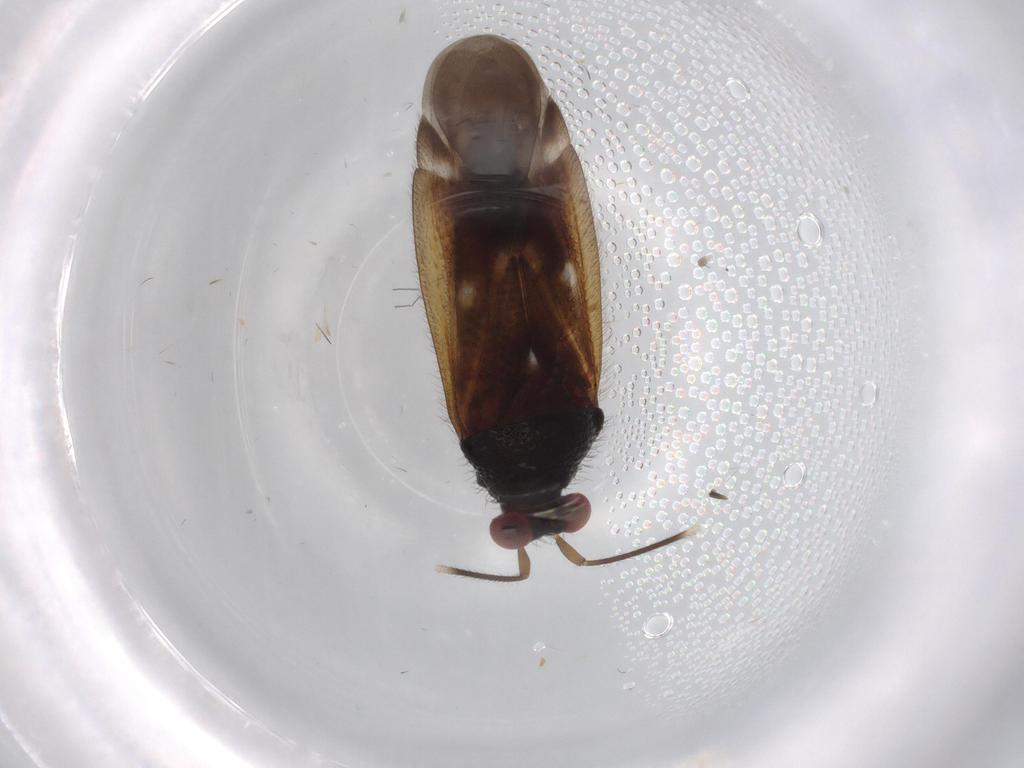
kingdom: Animalia
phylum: Arthropoda
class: Insecta
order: Hemiptera
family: Miridae
